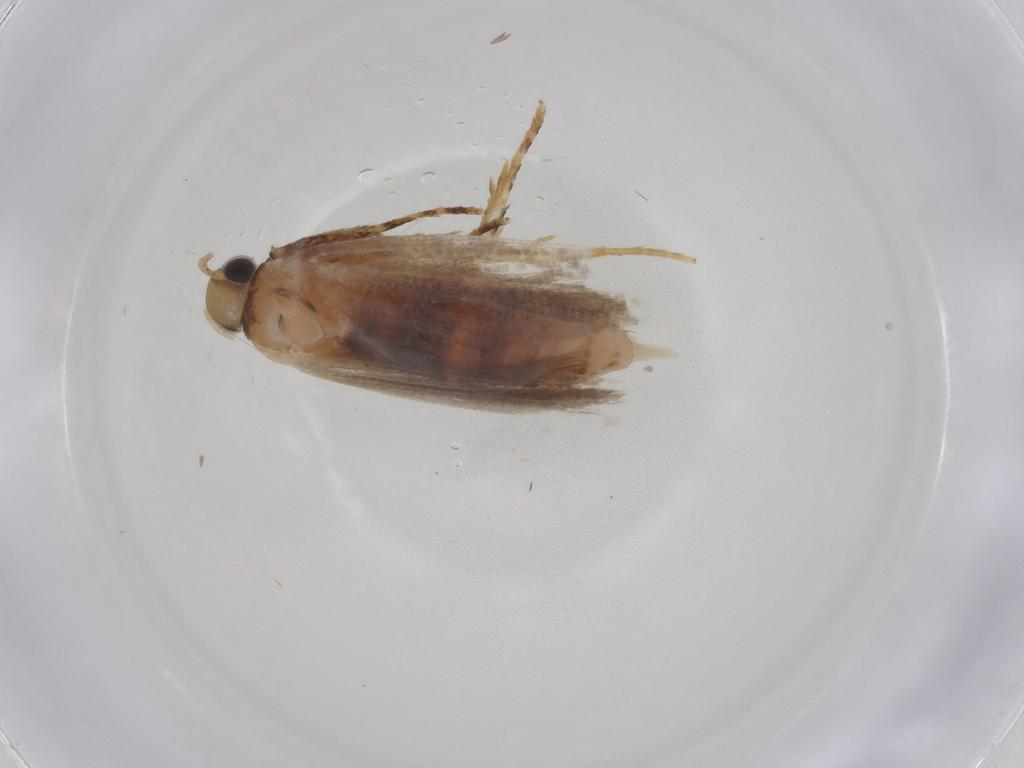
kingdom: Animalia
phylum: Arthropoda
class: Insecta
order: Lepidoptera
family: Gelechiidae
